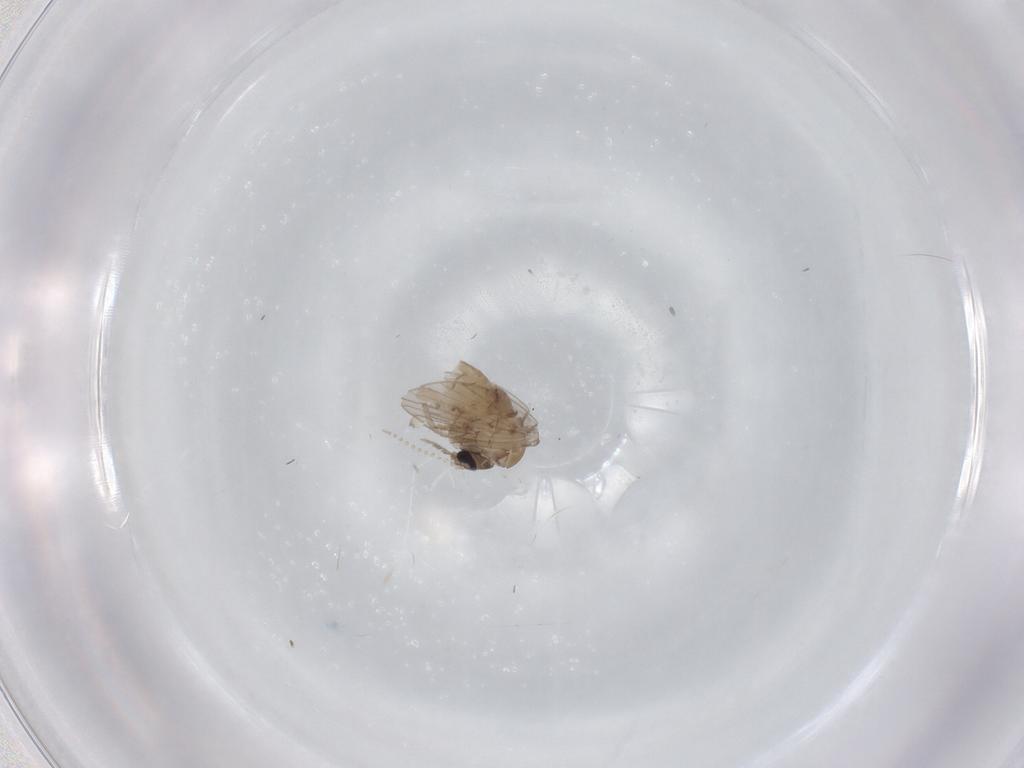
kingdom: Animalia
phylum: Arthropoda
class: Insecta
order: Diptera
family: Psychodidae
